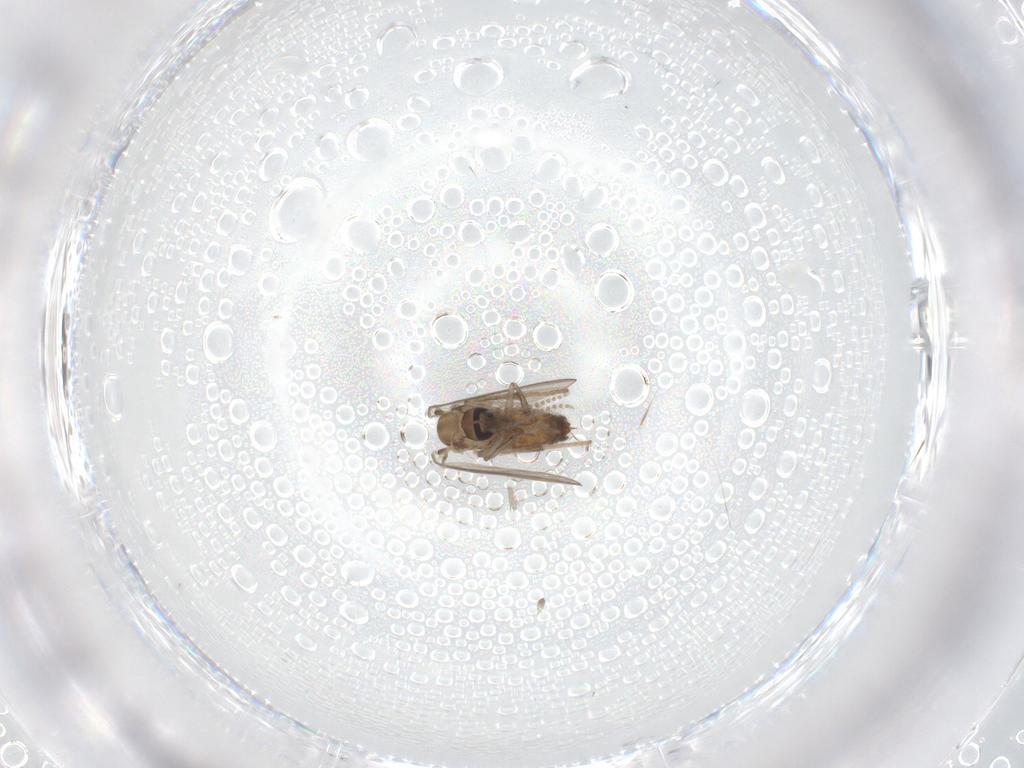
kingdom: Animalia
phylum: Arthropoda
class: Insecta
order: Diptera
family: Psychodidae
